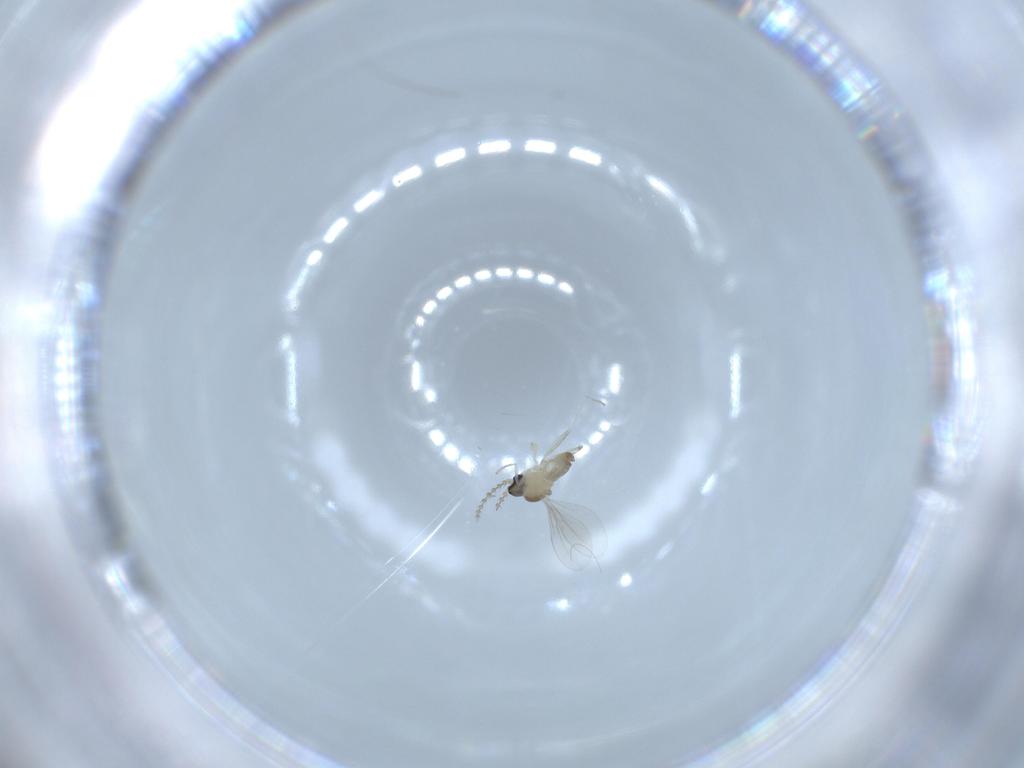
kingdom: Animalia
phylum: Arthropoda
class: Insecta
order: Diptera
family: Cecidomyiidae
